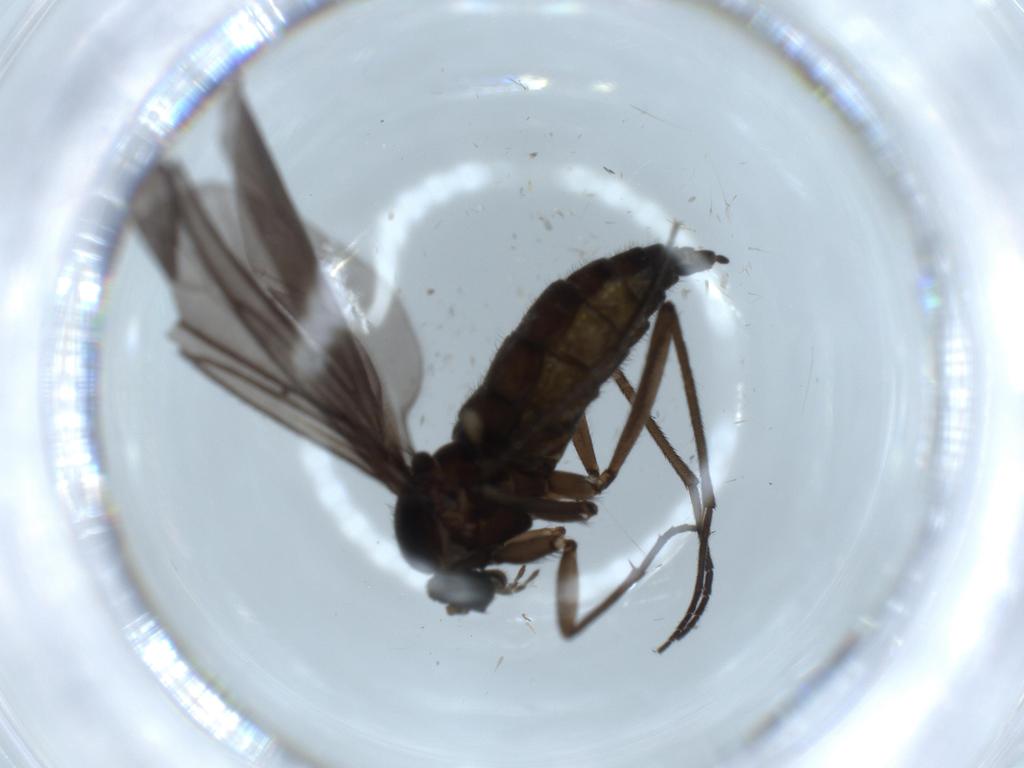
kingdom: Animalia
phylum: Arthropoda
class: Insecta
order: Diptera
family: Sciaridae
